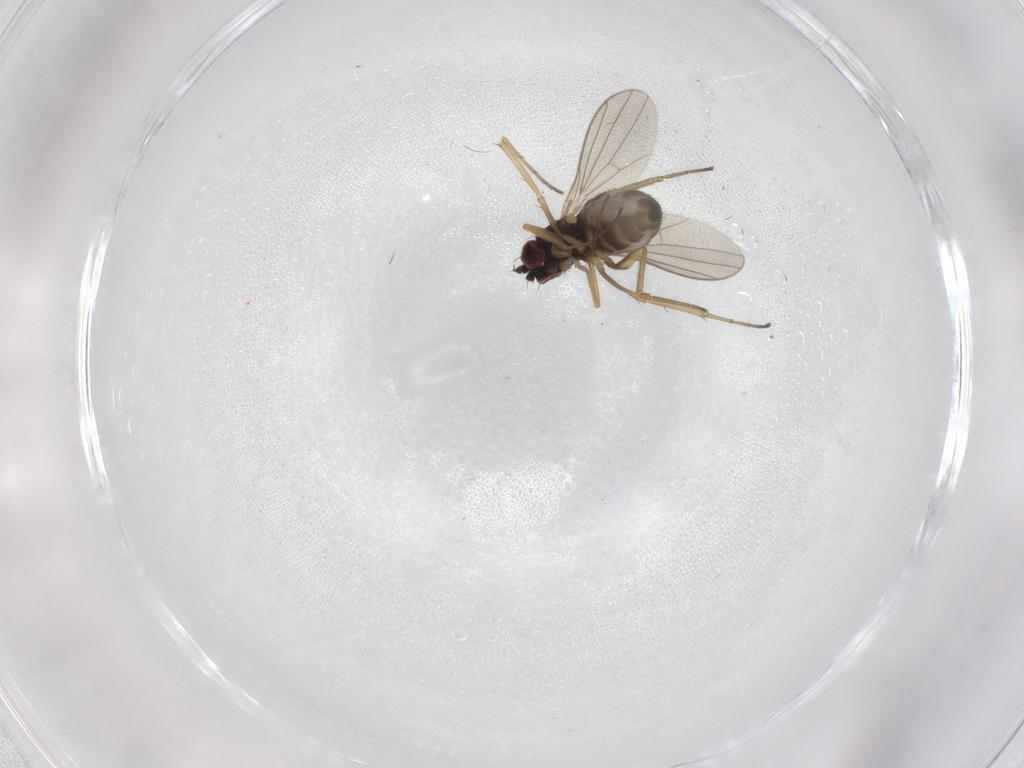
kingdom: Animalia
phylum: Arthropoda
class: Insecta
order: Diptera
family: Dolichopodidae
